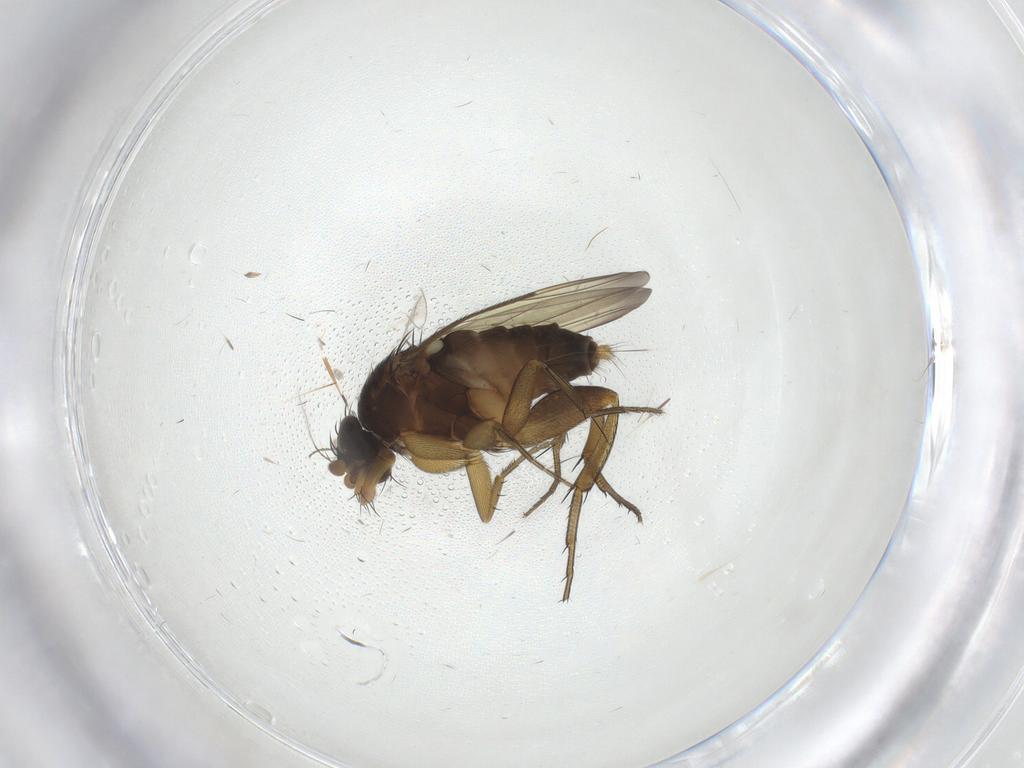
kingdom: Animalia
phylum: Arthropoda
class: Insecta
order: Diptera
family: Phoridae
